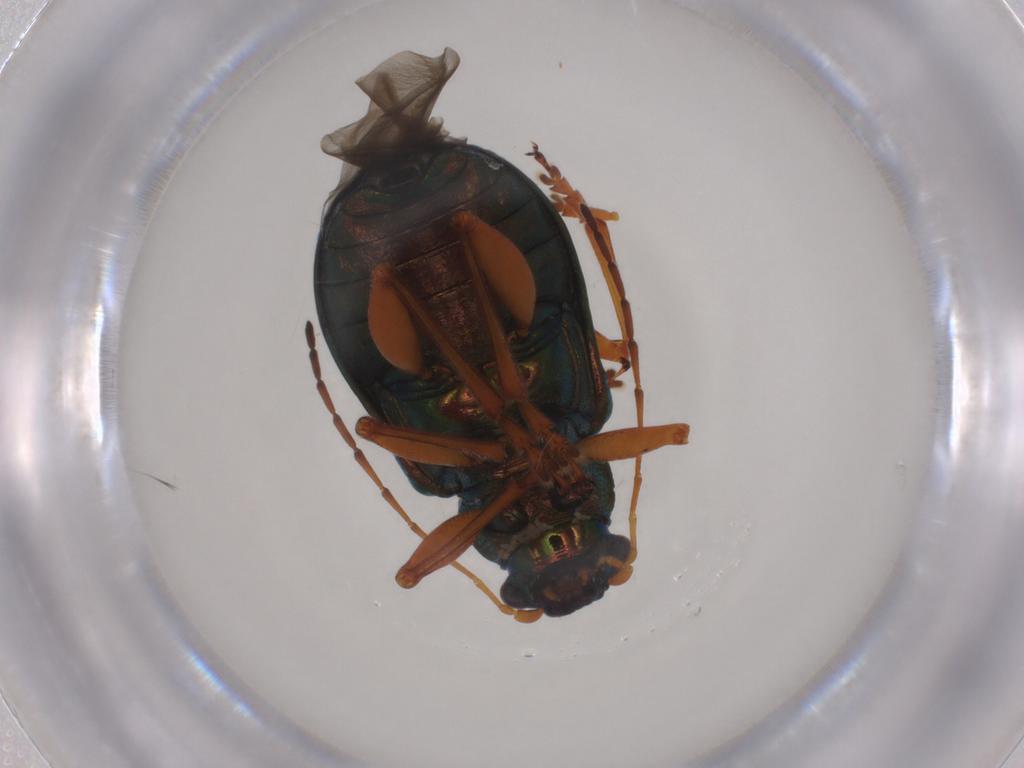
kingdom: Animalia
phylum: Arthropoda
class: Insecta
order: Coleoptera
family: Chrysomelidae
